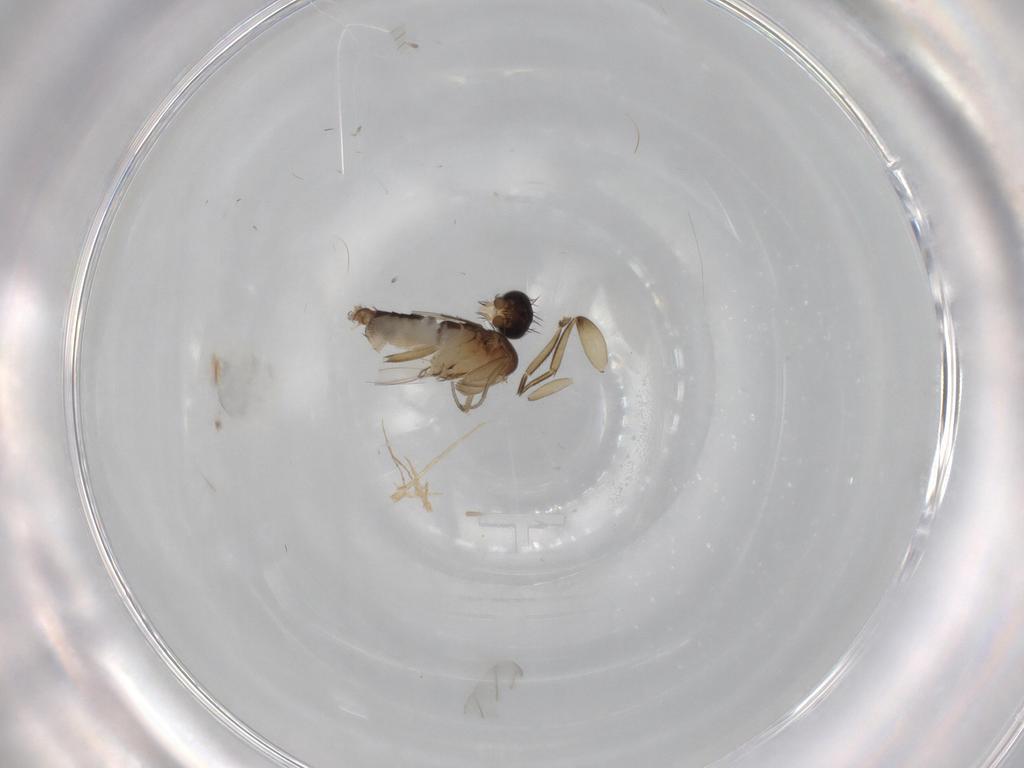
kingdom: Animalia
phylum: Arthropoda
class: Insecta
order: Diptera
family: Phoridae
